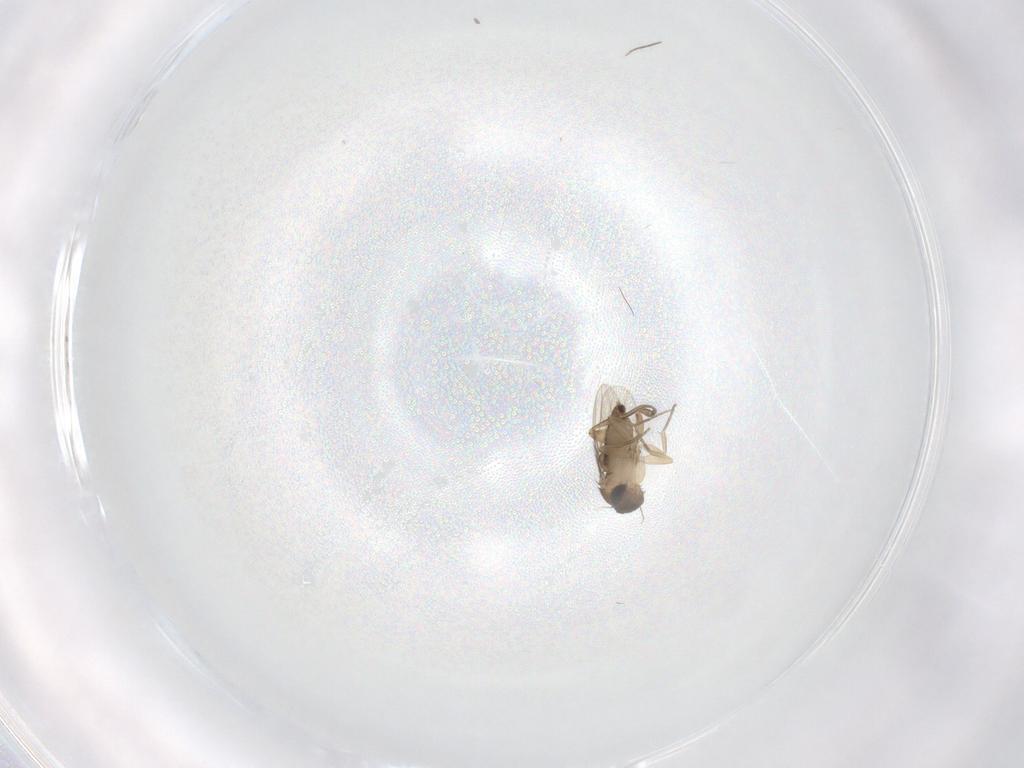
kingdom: Animalia
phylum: Arthropoda
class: Insecta
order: Diptera
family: Phoridae
